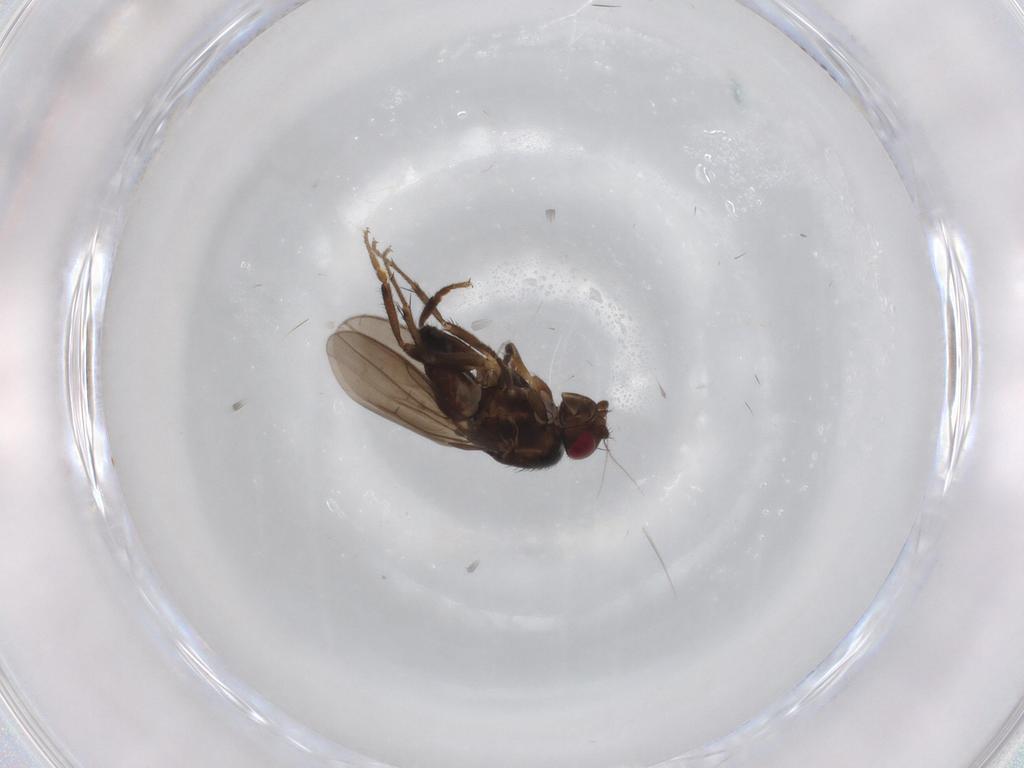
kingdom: Animalia
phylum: Arthropoda
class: Insecta
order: Diptera
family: Sphaeroceridae
